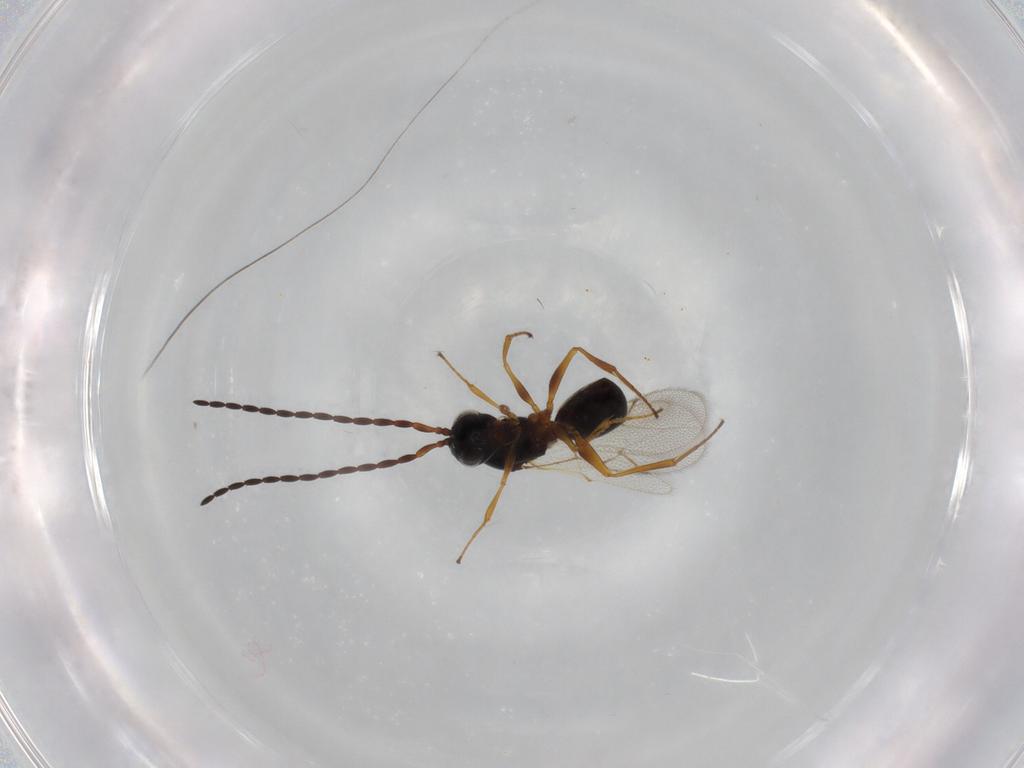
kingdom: Animalia
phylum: Arthropoda
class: Insecta
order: Hymenoptera
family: Figitidae
